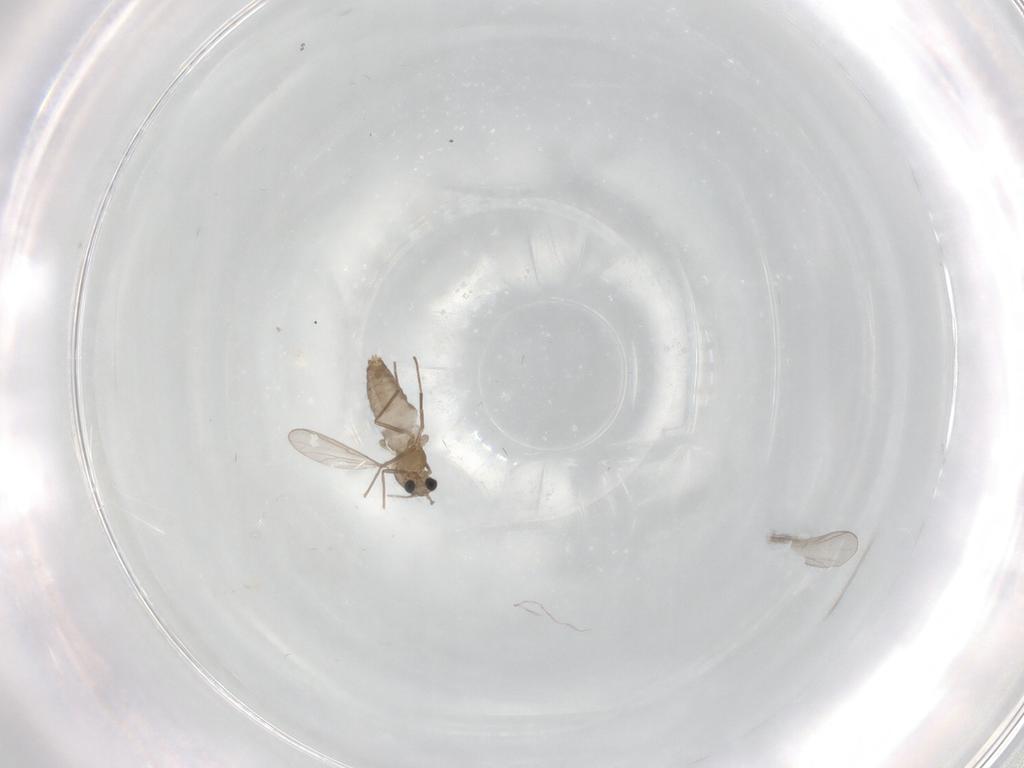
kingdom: Animalia
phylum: Arthropoda
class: Insecta
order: Diptera
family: Chironomidae
